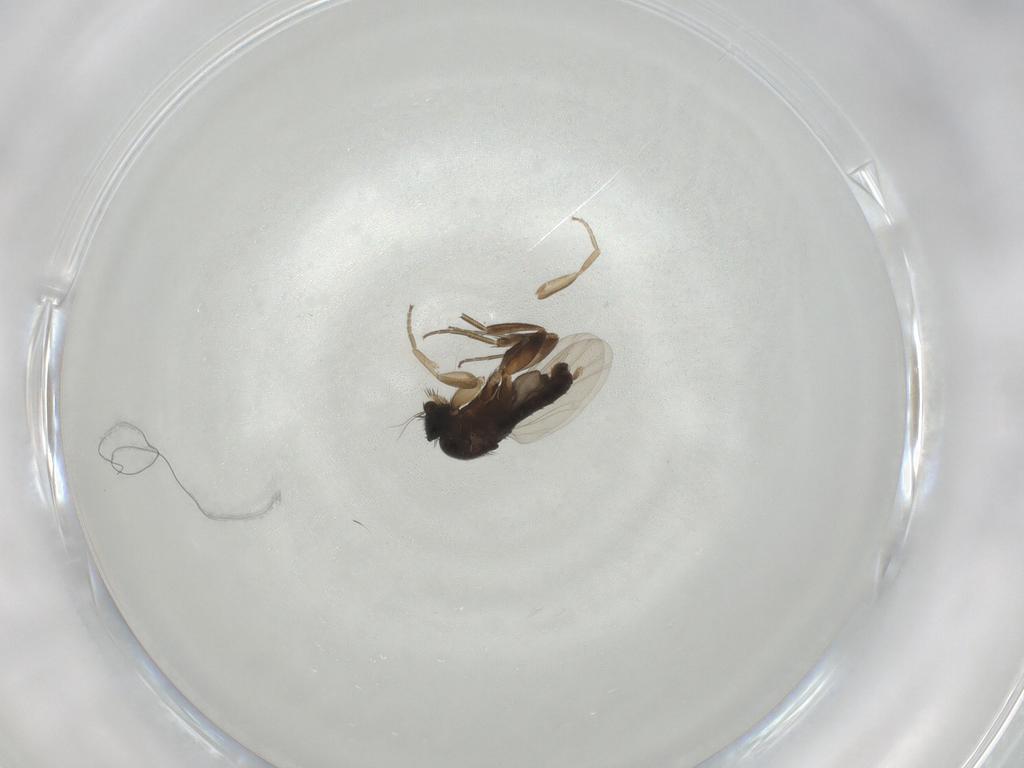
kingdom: Animalia
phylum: Arthropoda
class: Insecta
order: Diptera
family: Phoridae
